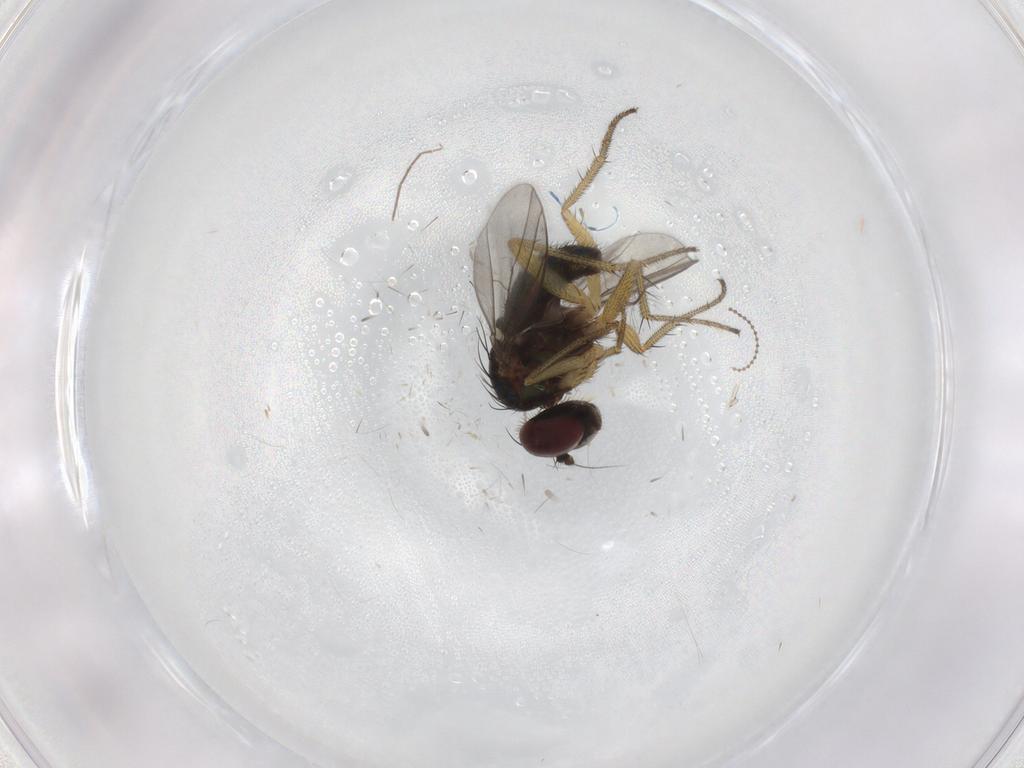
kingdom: Animalia
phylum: Arthropoda
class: Insecta
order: Diptera
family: Chironomidae
